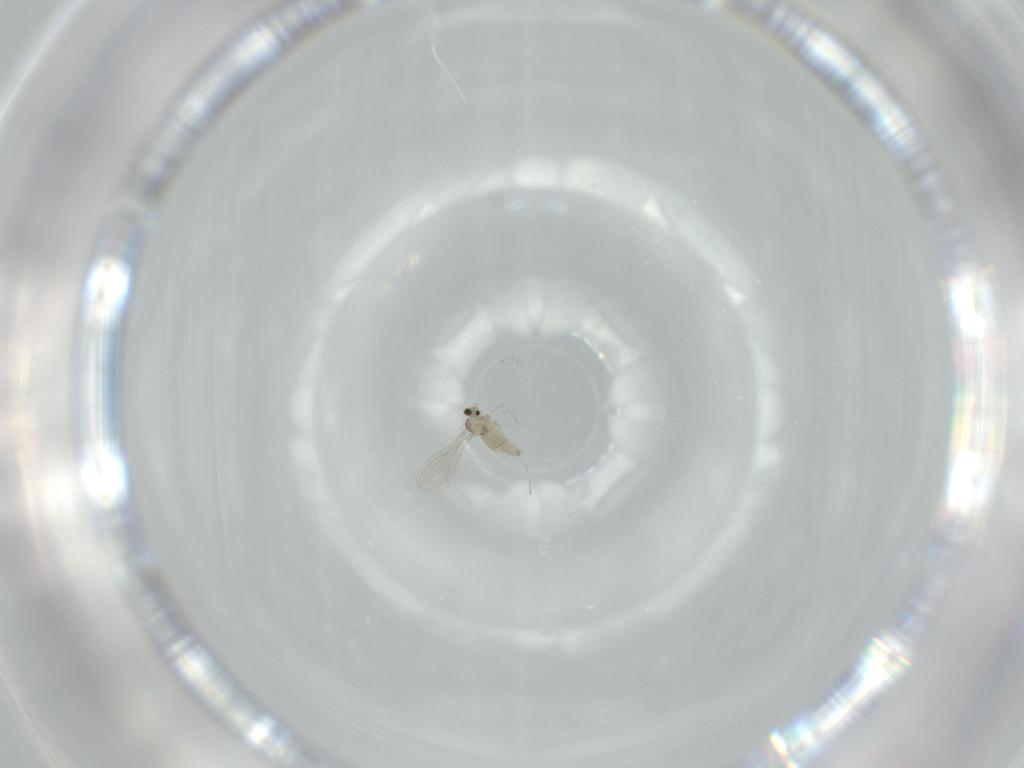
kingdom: Animalia
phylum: Arthropoda
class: Insecta
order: Diptera
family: Cecidomyiidae
